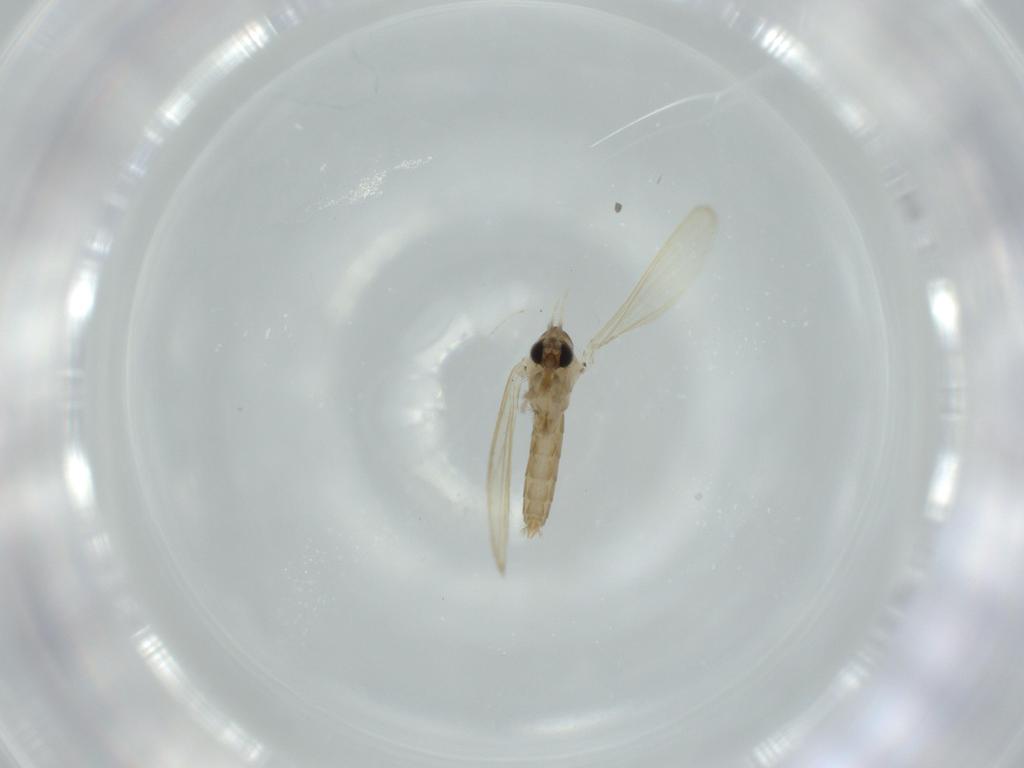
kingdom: Animalia
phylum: Arthropoda
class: Insecta
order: Diptera
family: Psychodidae
